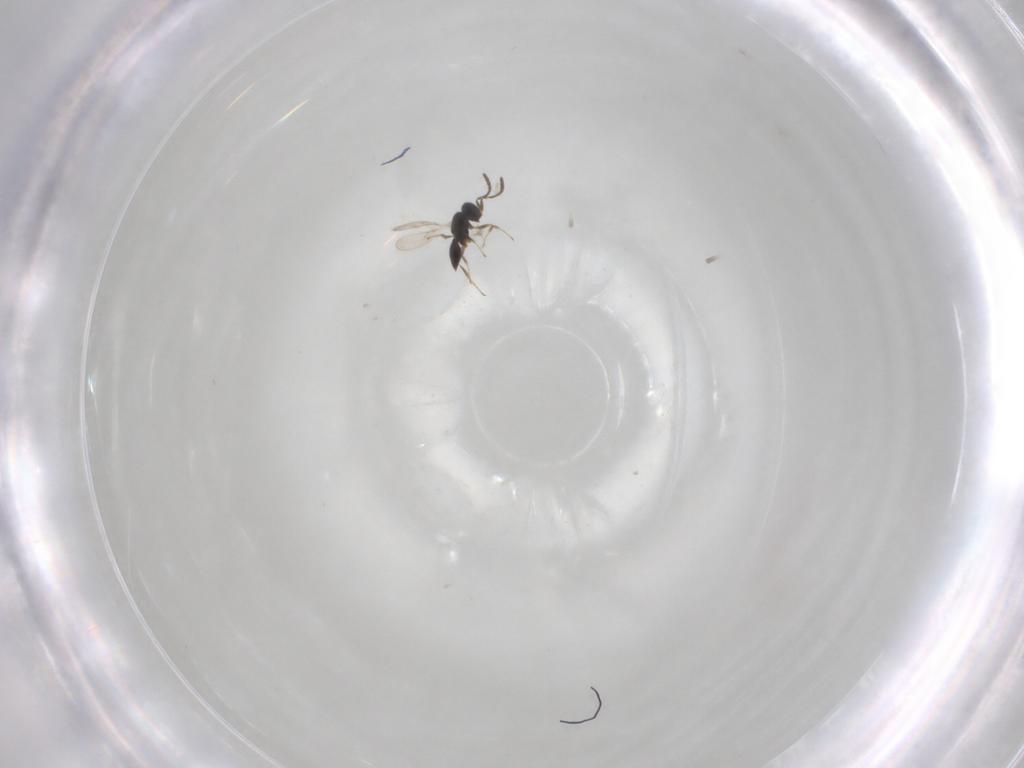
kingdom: Animalia
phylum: Arthropoda
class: Insecta
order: Hymenoptera
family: Scelionidae
